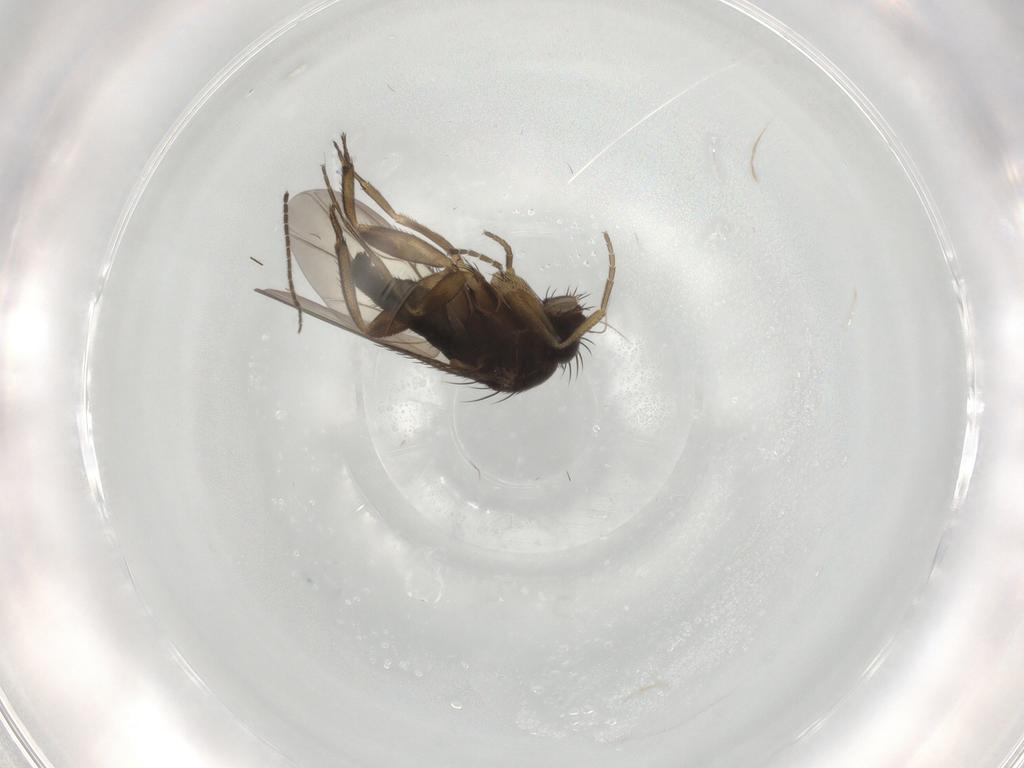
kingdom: Animalia
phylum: Arthropoda
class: Insecta
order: Diptera
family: Phoridae
